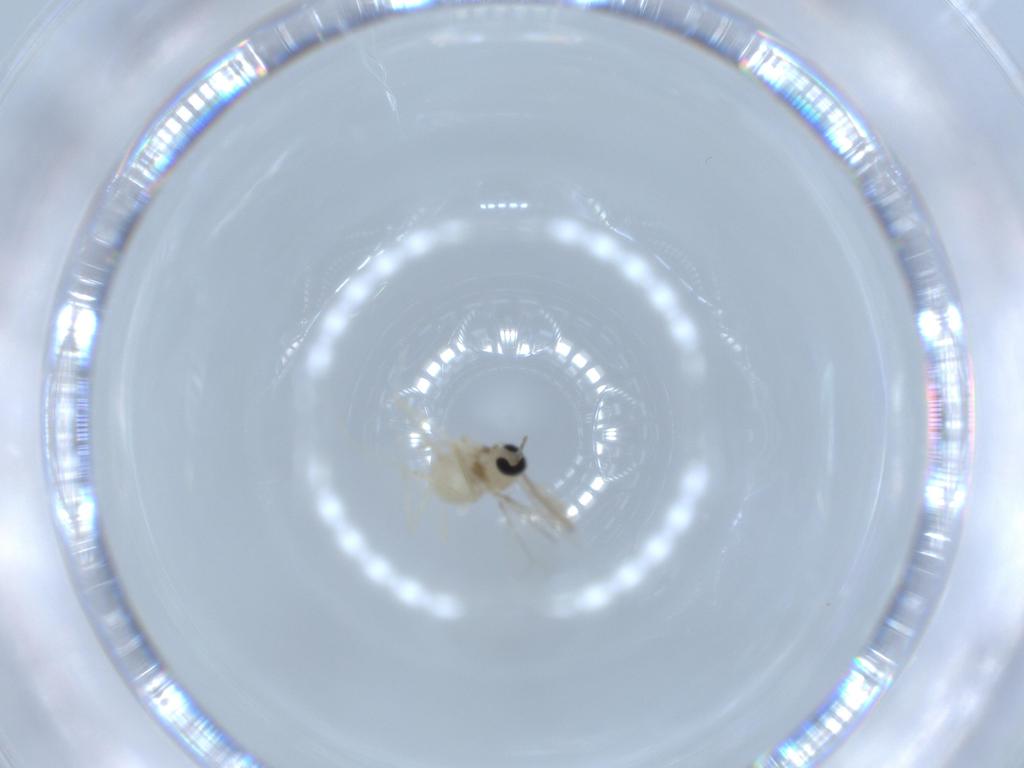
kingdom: Animalia
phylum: Arthropoda
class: Insecta
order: Diptera
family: Cecidomyiidae
